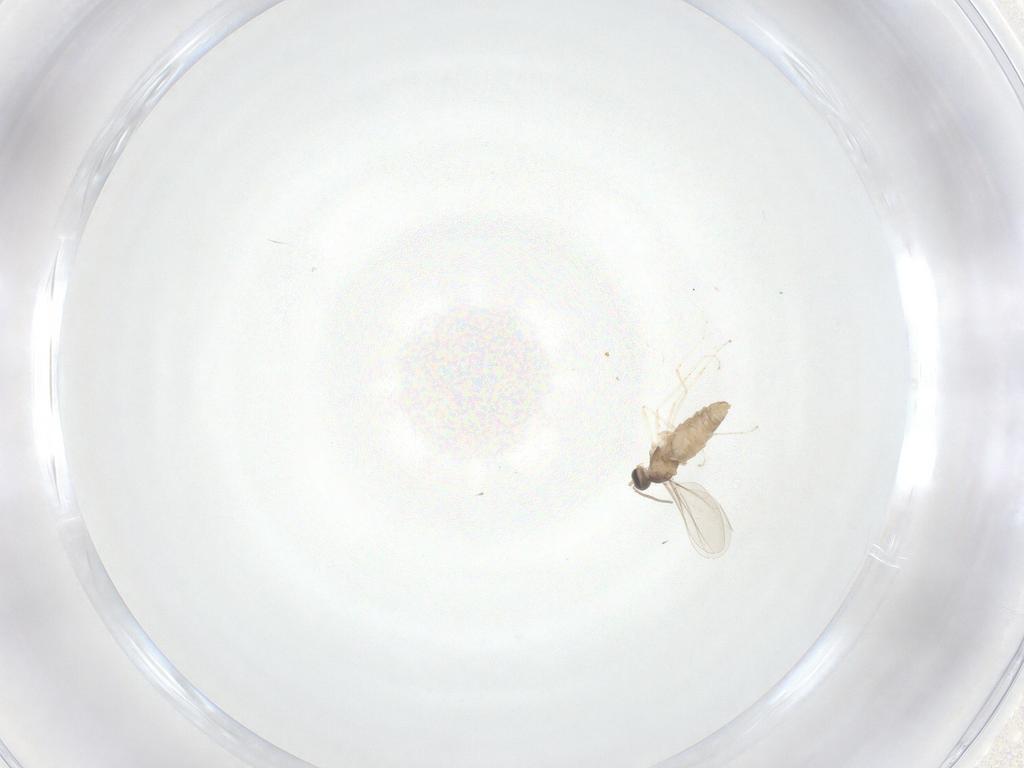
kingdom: Animalia
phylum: Arthropoda
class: Insecta
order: Diptera
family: Cecidomyiidae
